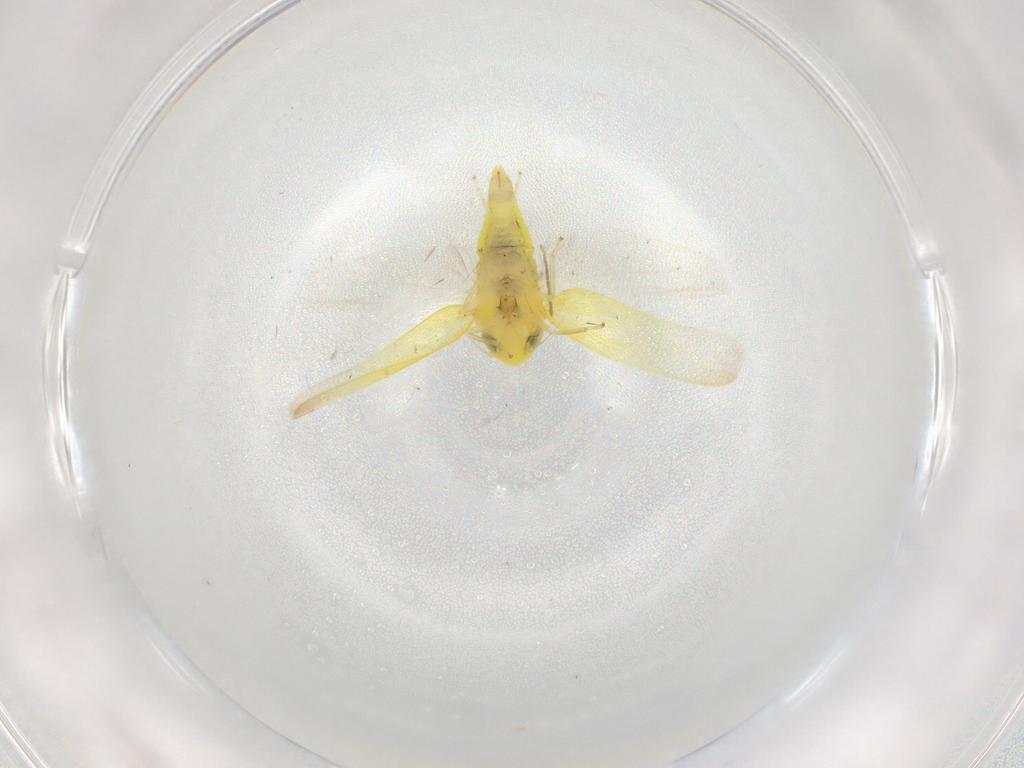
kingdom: Animalia
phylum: Arthropoda
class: Insecta
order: Hemiptera
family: Cicadellidae
